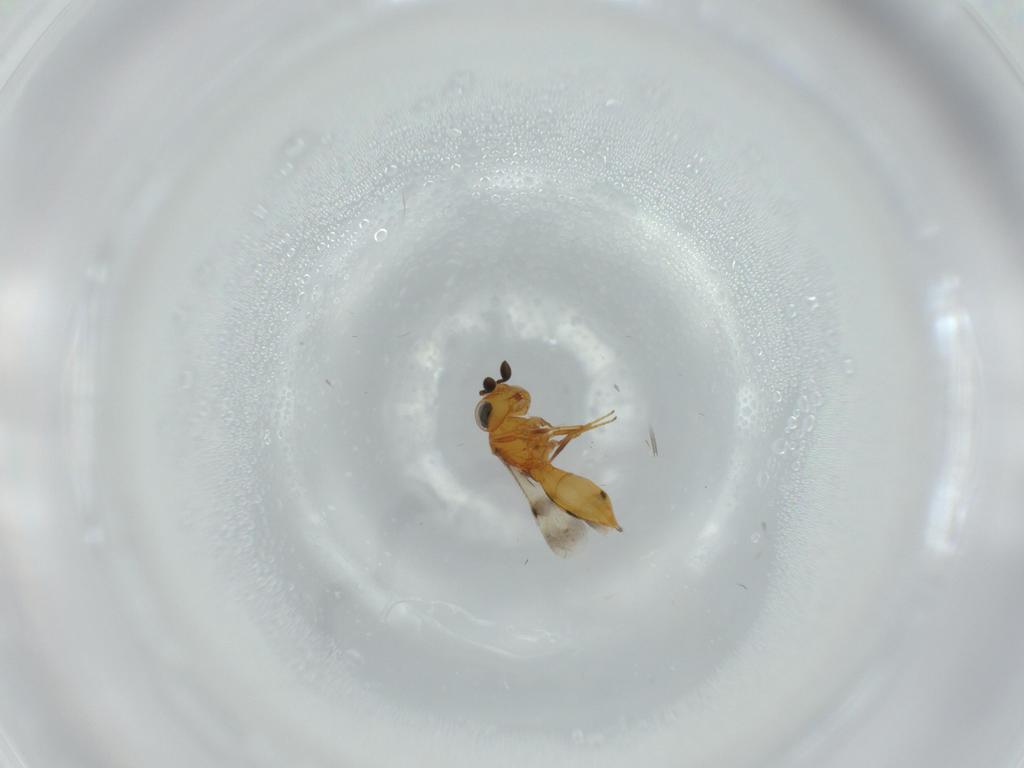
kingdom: Animalia
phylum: Arthropoda
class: Insecta
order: Hymenoptera
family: Scelionidae
